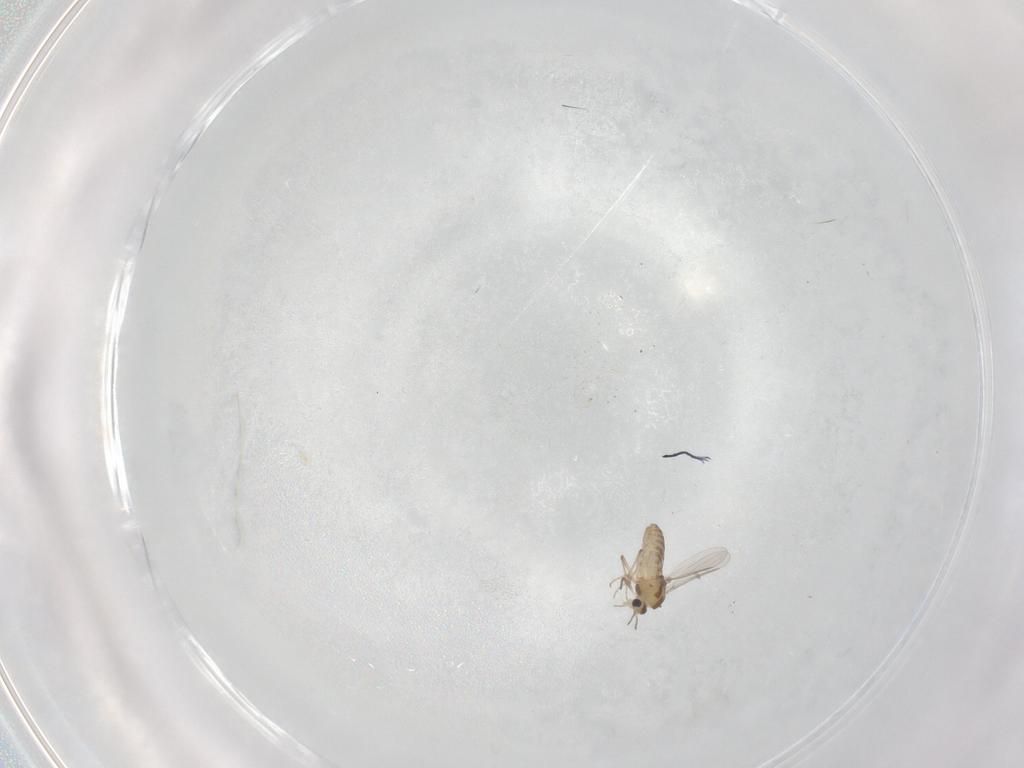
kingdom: Animalia
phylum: Arthropoda
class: Insecta
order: Diptera
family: Chironomidae
